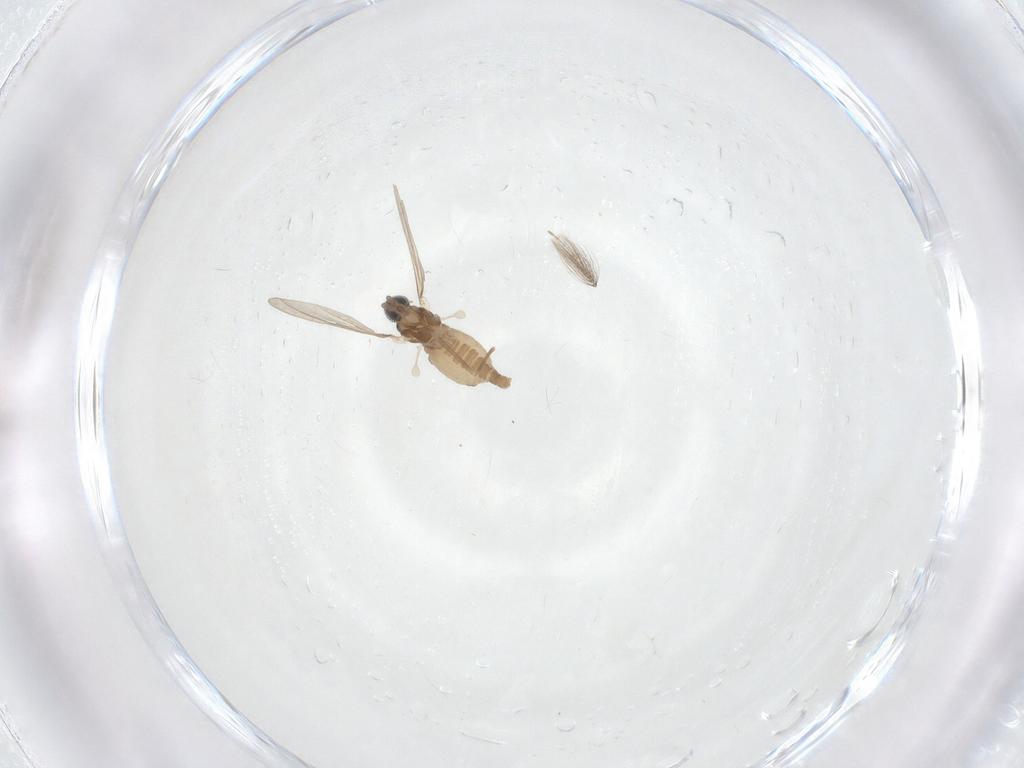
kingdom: Animalia
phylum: Arthropoda
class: Insecta
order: Diptera
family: Cecidomyiidae
